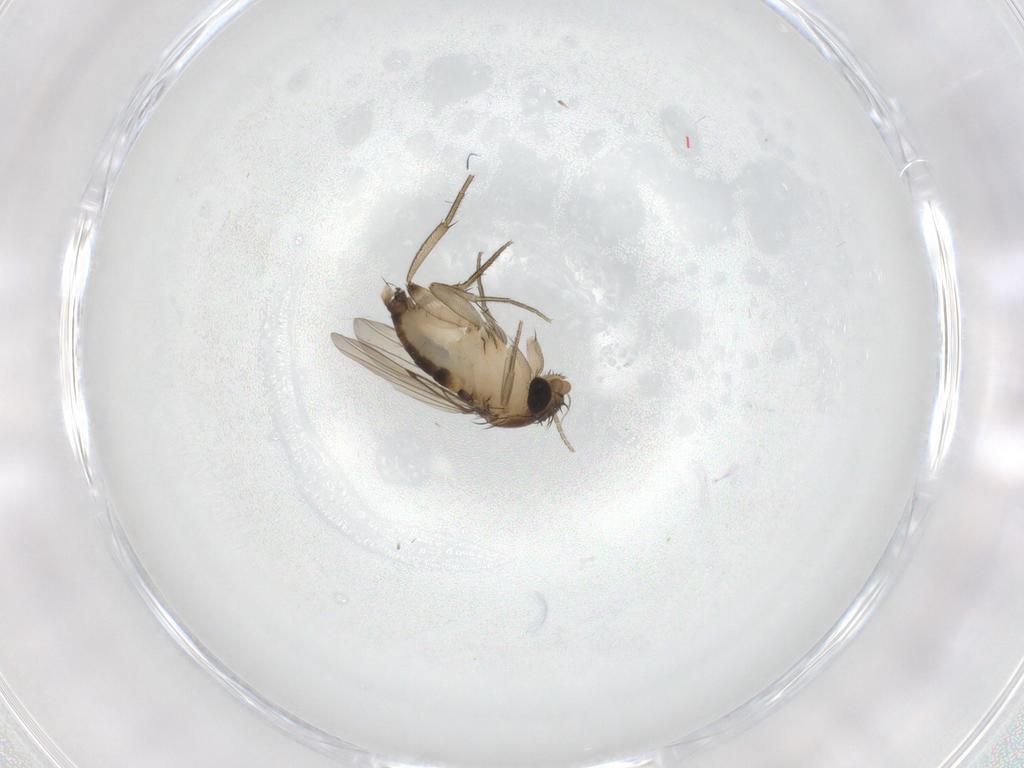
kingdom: Animalia
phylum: Arthropoda
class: Insecta
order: Diptera
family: Phoridae
